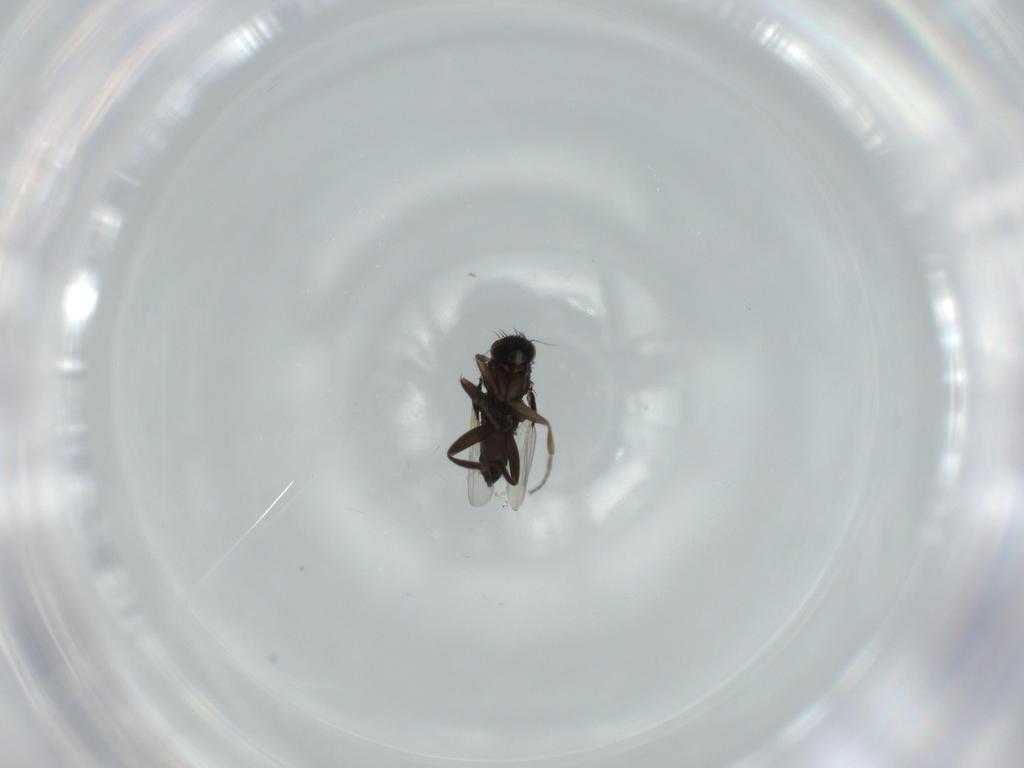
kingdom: Animalia
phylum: Arthropoda
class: Insecta
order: Diptera
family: Phoridae
